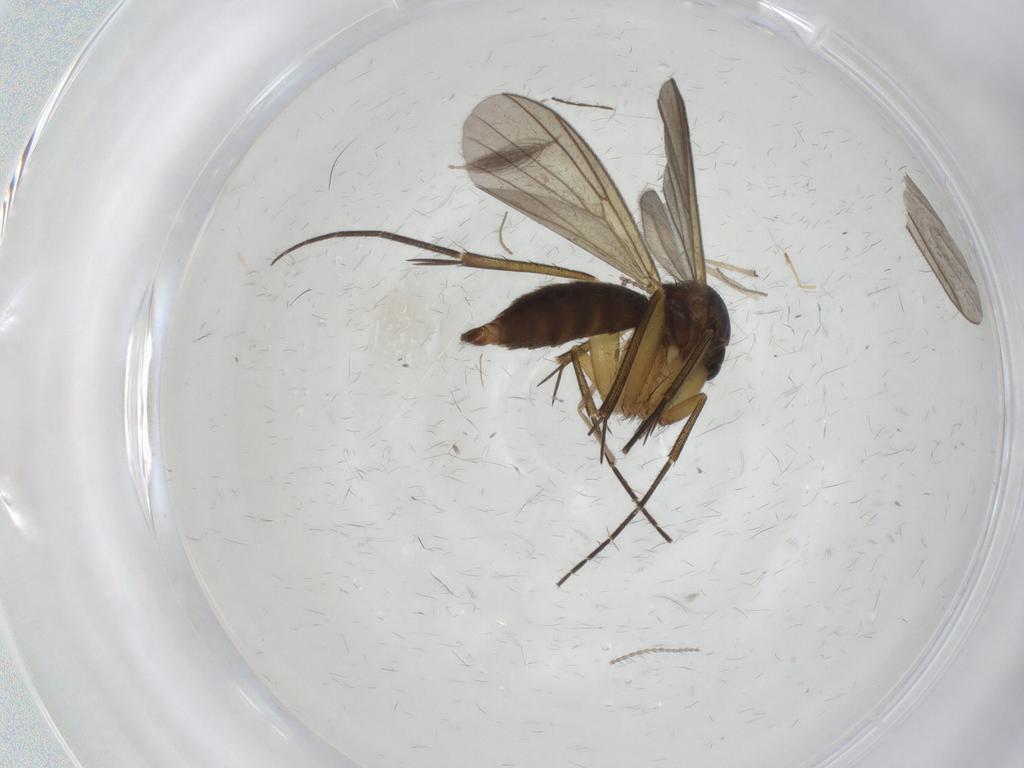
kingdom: Animalia
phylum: Arthropoda
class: Insecta
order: Diptera
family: Mycetophilidae
